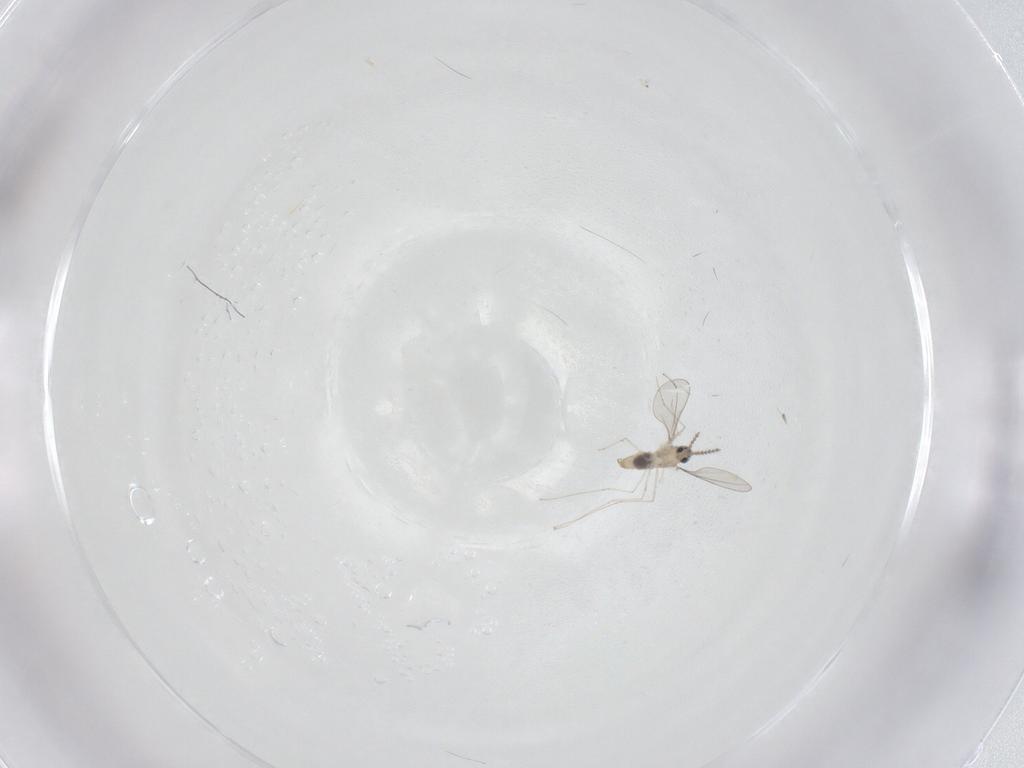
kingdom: Animalia
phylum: Arthropoda
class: Insecta
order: Diptera
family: Cecidomyiidae
